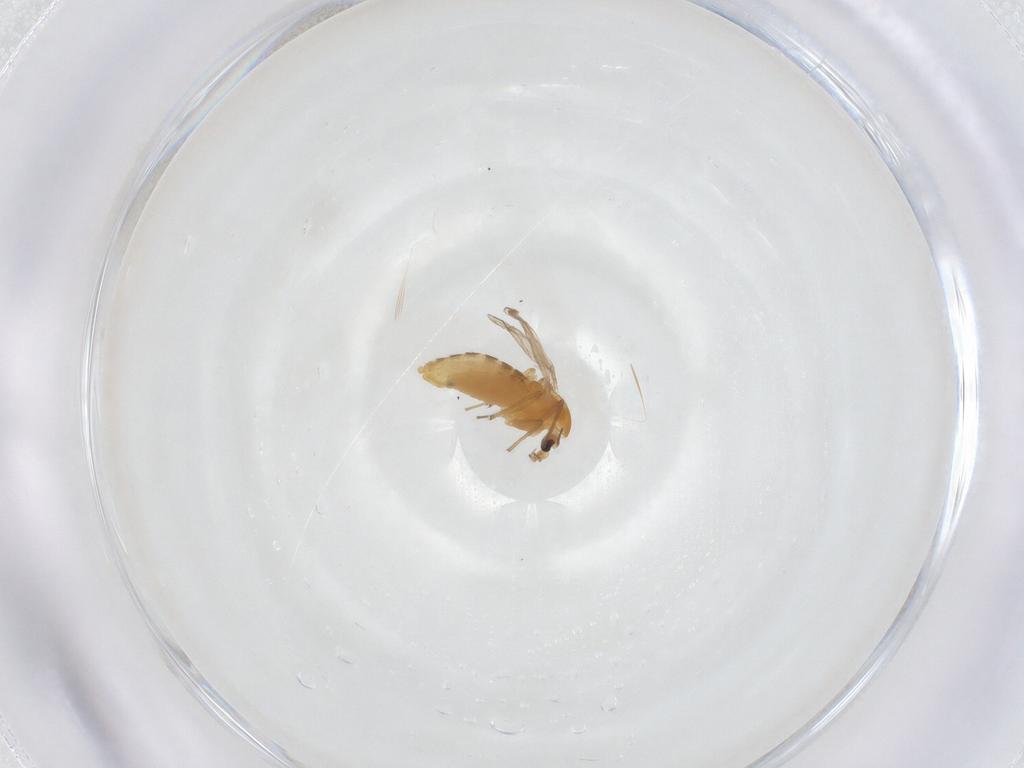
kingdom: Animalia
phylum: Arthropoda
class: Insecta
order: Diptera
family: Chironomidae
